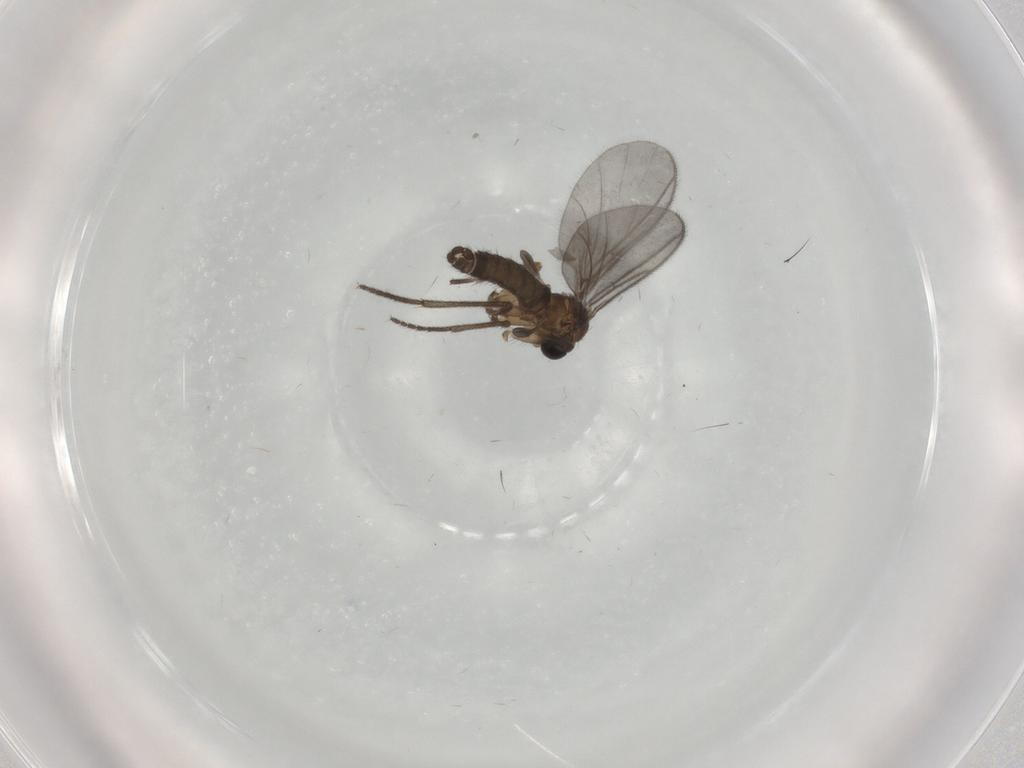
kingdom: Animalia
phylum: Arthropoda
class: Insecta
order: Diptera
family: Sciaridae
